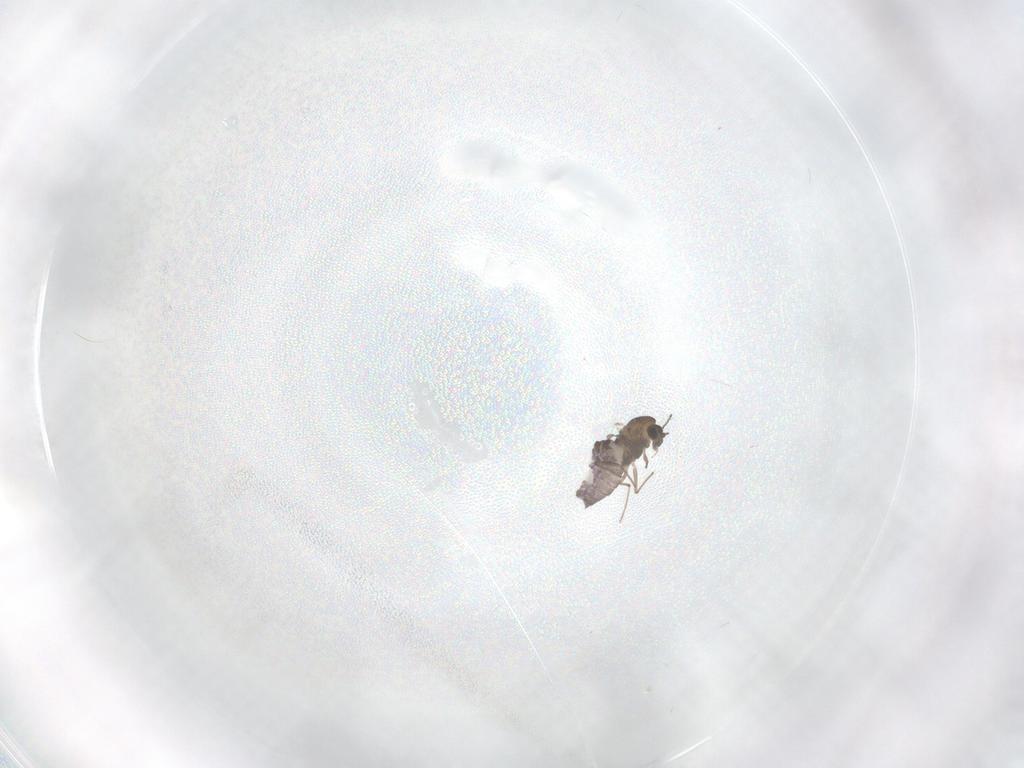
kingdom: Animalia
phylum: Arthropoda
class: Insecta
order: Diptera
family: Chironomidae
